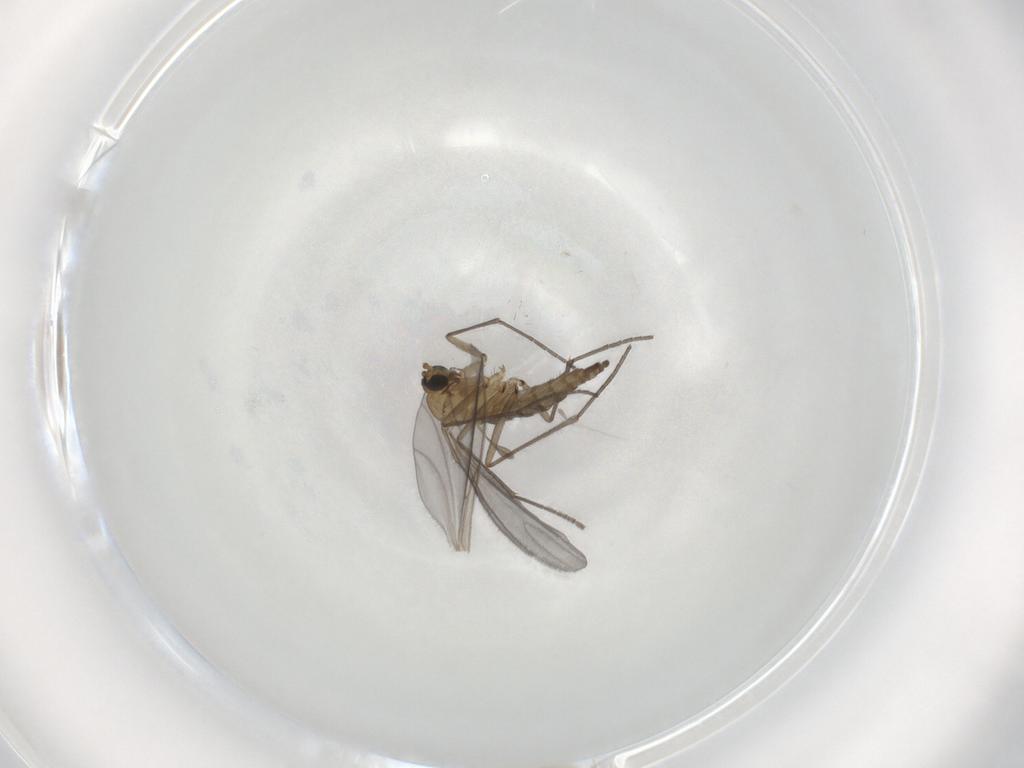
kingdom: Animalia
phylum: Arthropoda
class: Insecta
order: Diptera
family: Sciaridae
